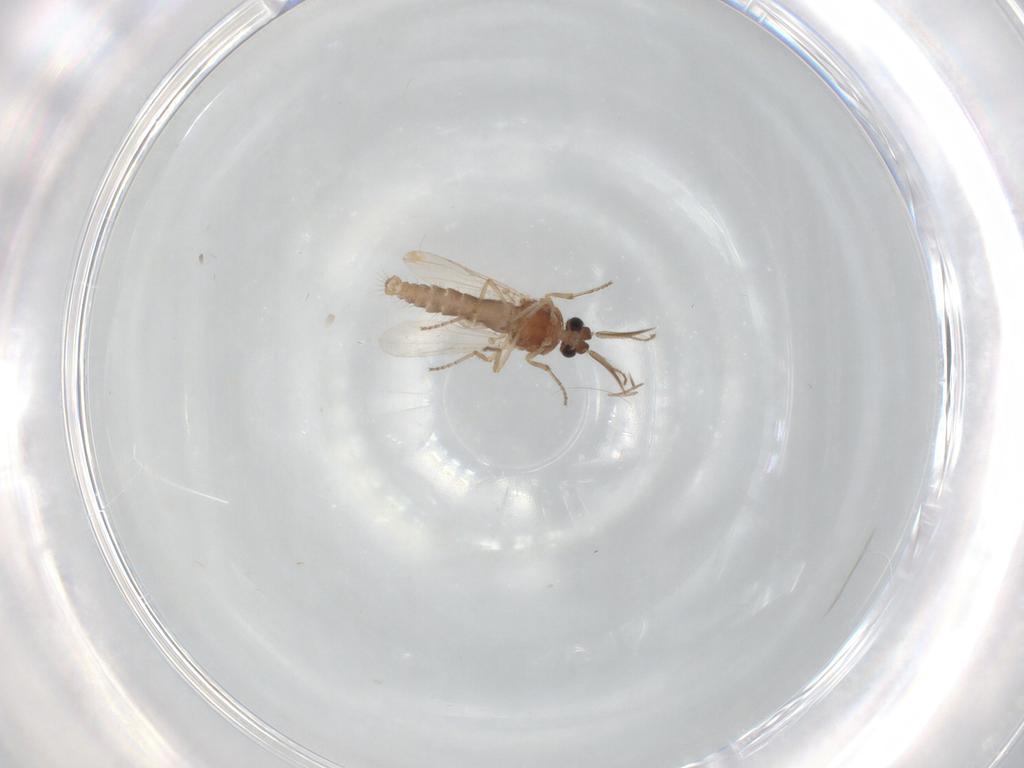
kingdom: Animalia
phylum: Arthropoda
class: Insecta
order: Diptera
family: Ceratopogonidae
